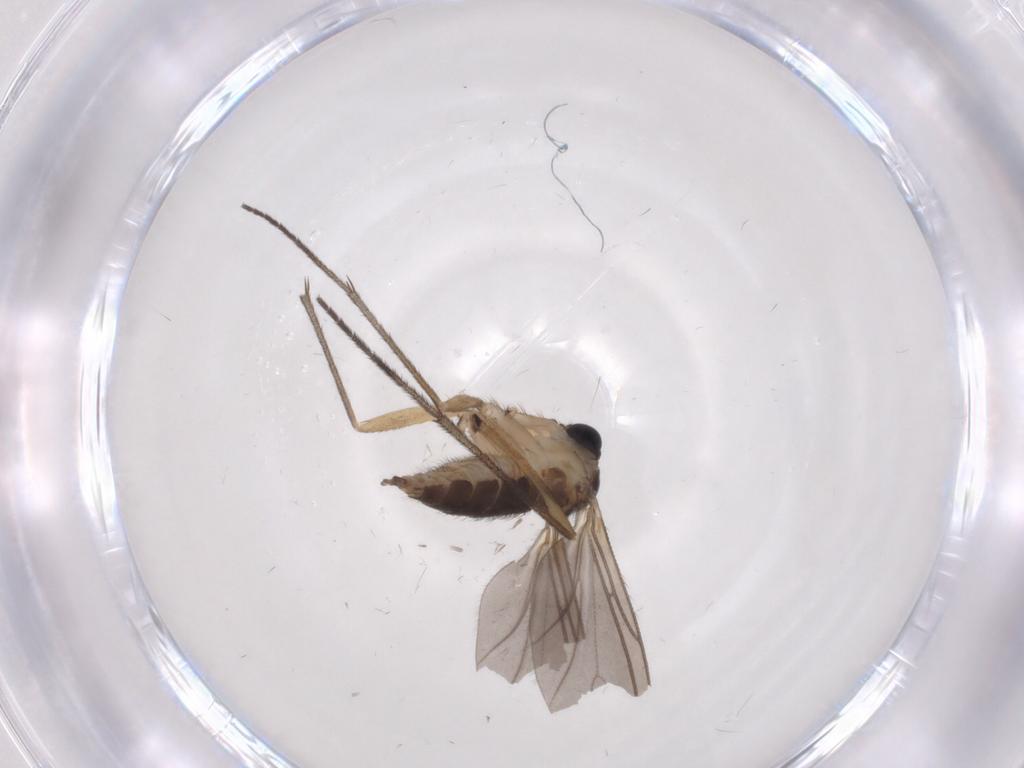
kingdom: Animalia
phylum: Arthropoda
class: Insecta
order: Diptera
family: Sciaridae
